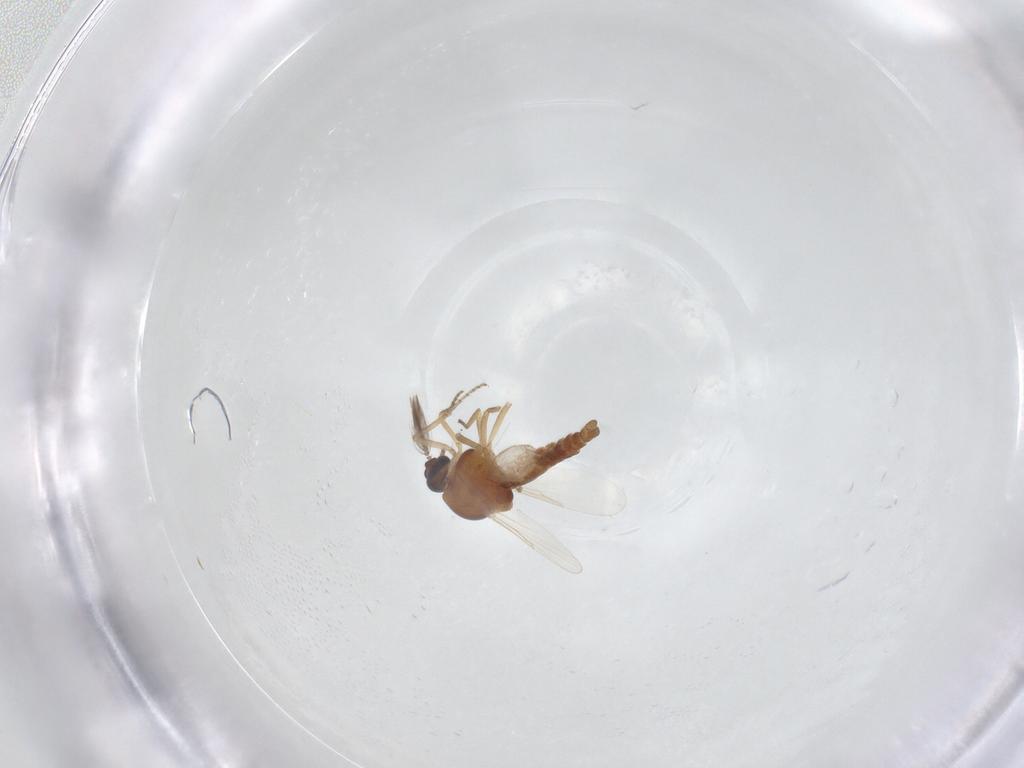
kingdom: Animalia
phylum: Arthropoda
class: Insecta
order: Diptera
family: Ceratopogonidae
